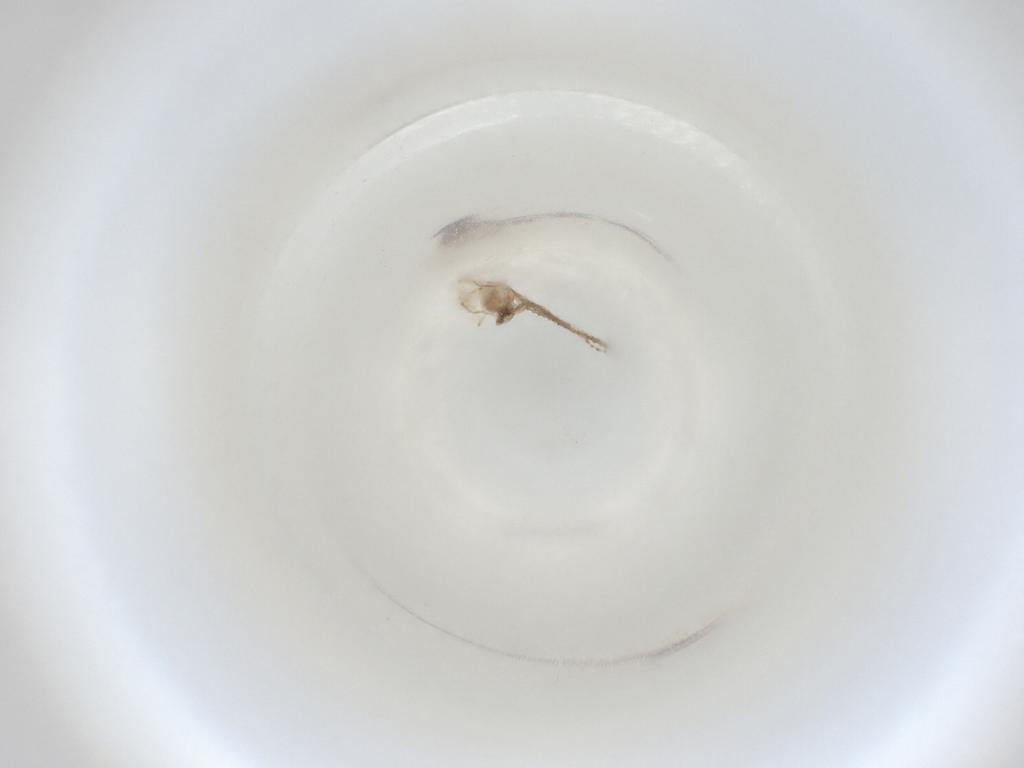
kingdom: Animalia
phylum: Arthropoda
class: Insecta
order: Diptera
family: Cecidomyiidae
